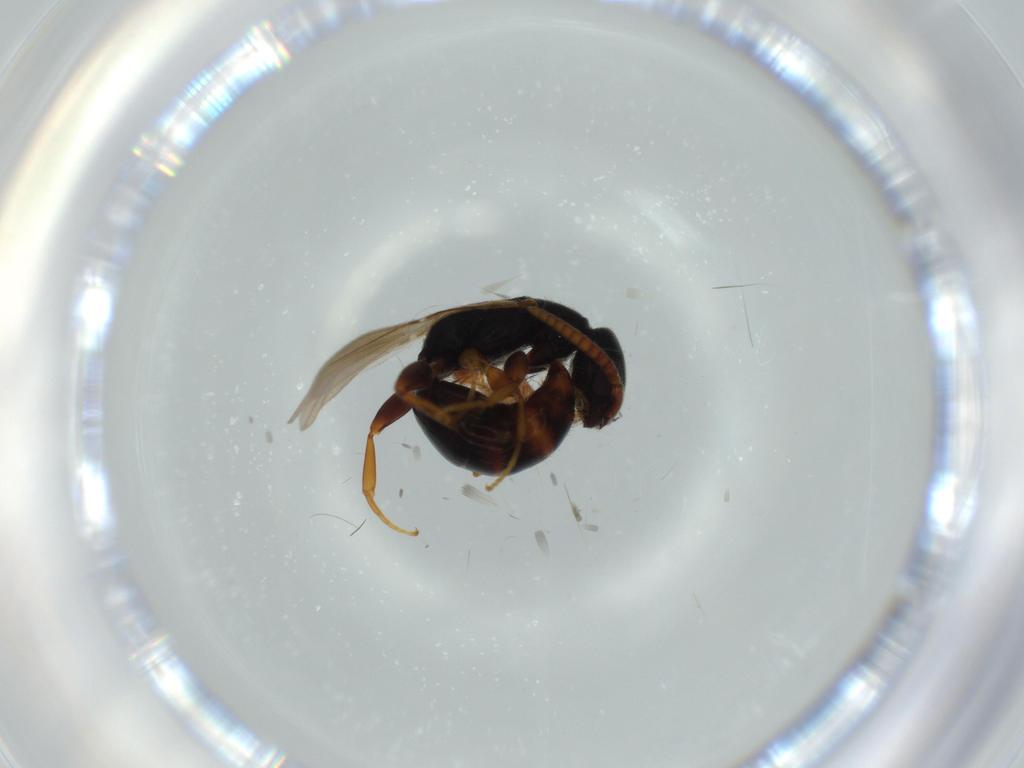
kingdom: Animalia
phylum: Arthropoda
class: Insecta
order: Hymenoptera
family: Bethylidae
